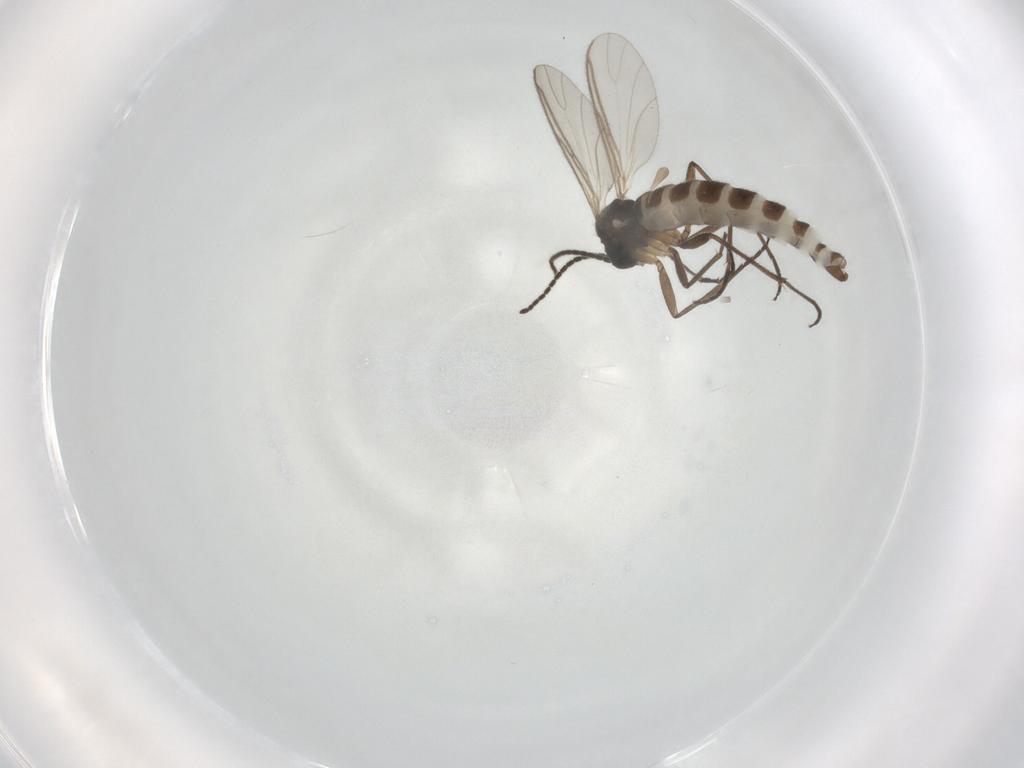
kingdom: Animalia
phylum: Arthropoda
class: Insecta
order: Diptera
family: Sciaridae
